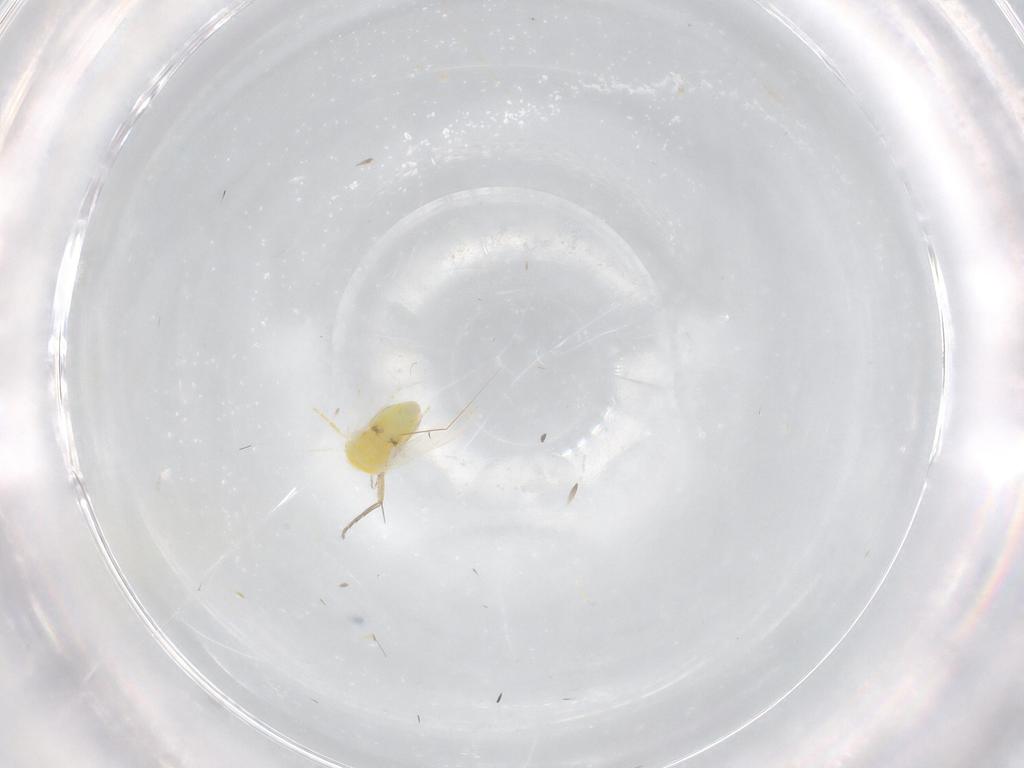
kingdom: Animalia
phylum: Arthropoda
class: Insecta
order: Hemiptera
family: Aleyrodidae
